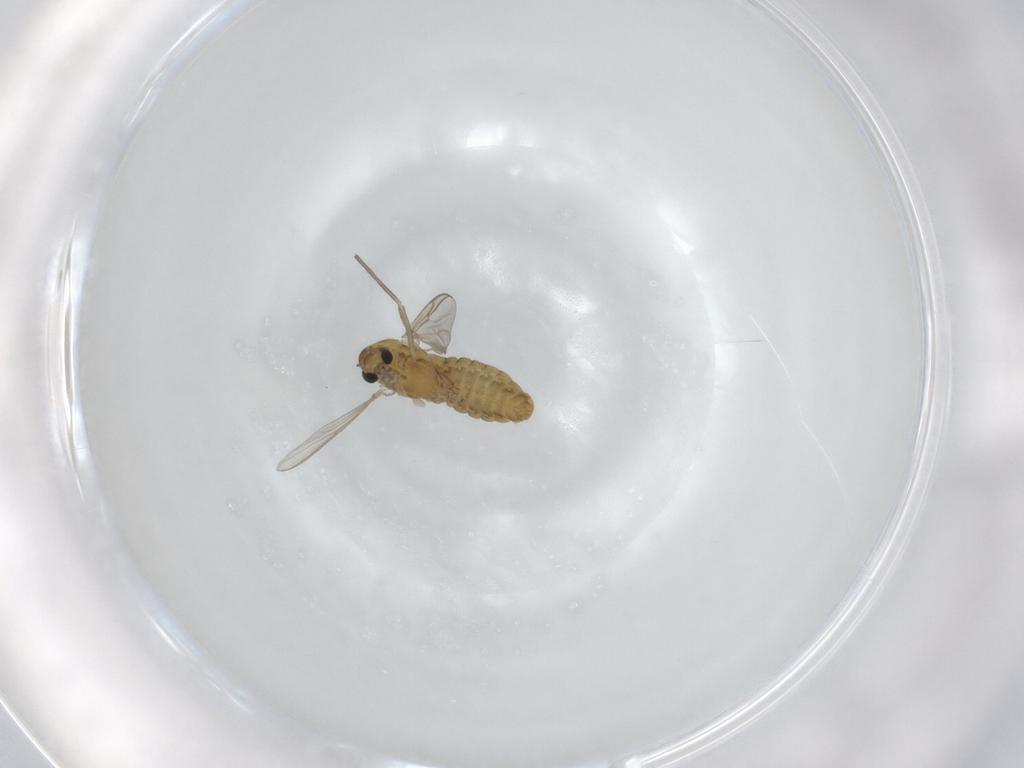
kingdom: Animalia
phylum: Arthropoda
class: Insecta
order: Diptera
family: Chironomidae
